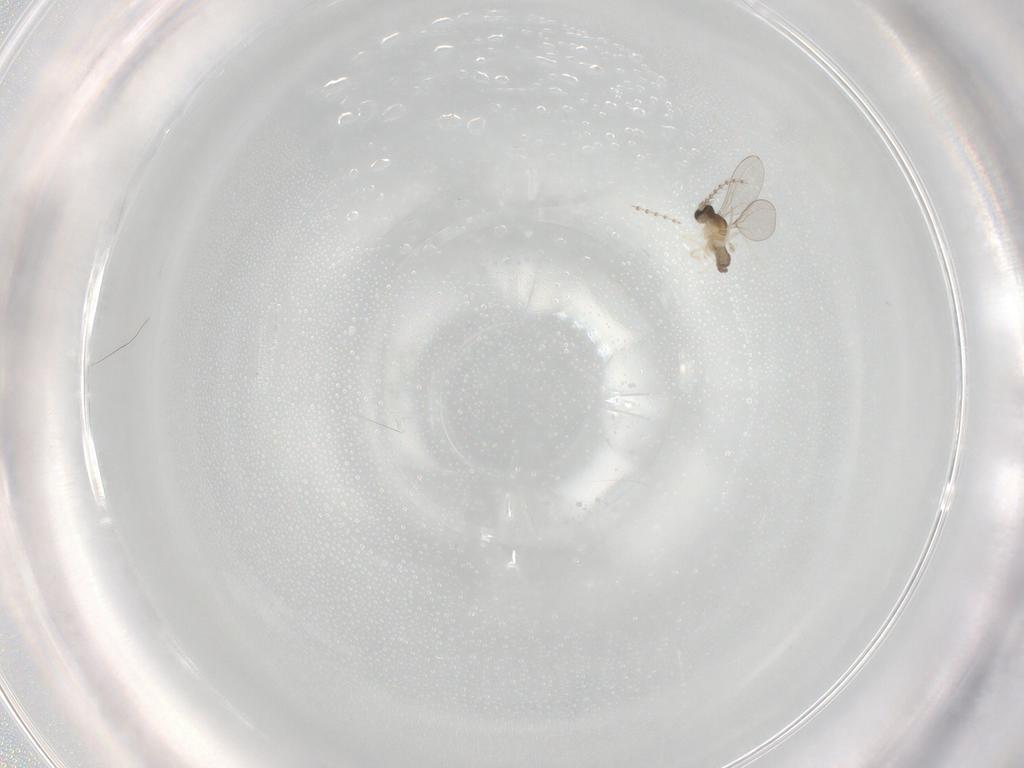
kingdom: Animalia
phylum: Arthropoda
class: Insecta
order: Diptera
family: Cecidomyiidae
